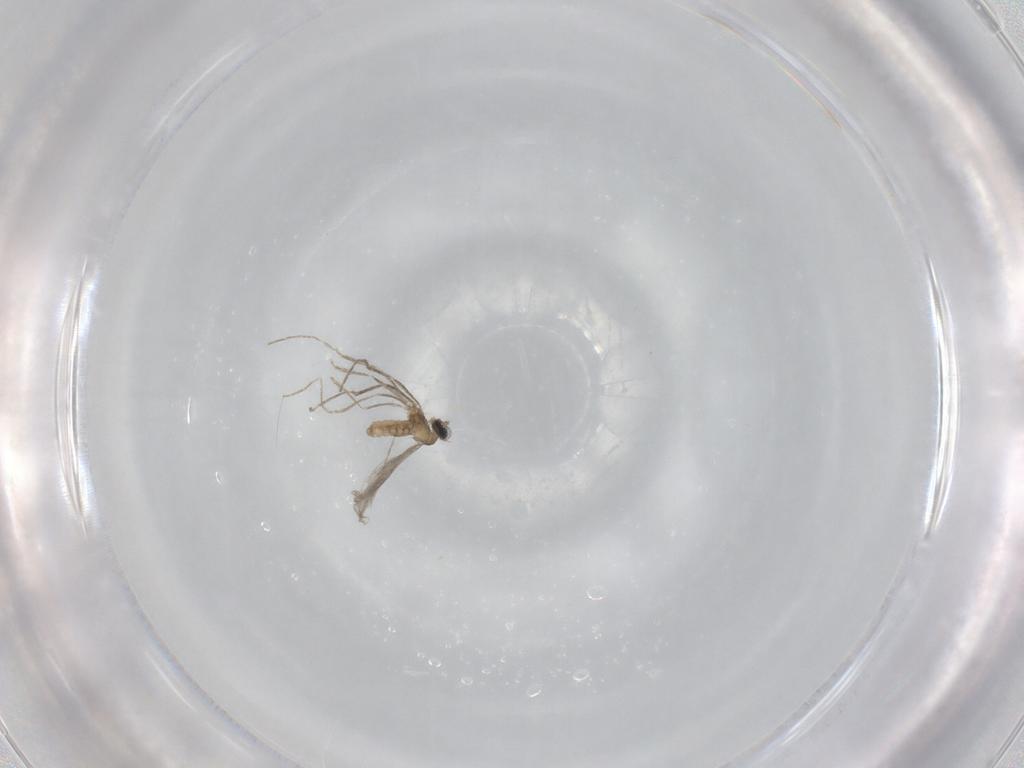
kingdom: Animalia
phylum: Arthropoda
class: Insecta
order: Diptera
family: Cecidomyiidae
